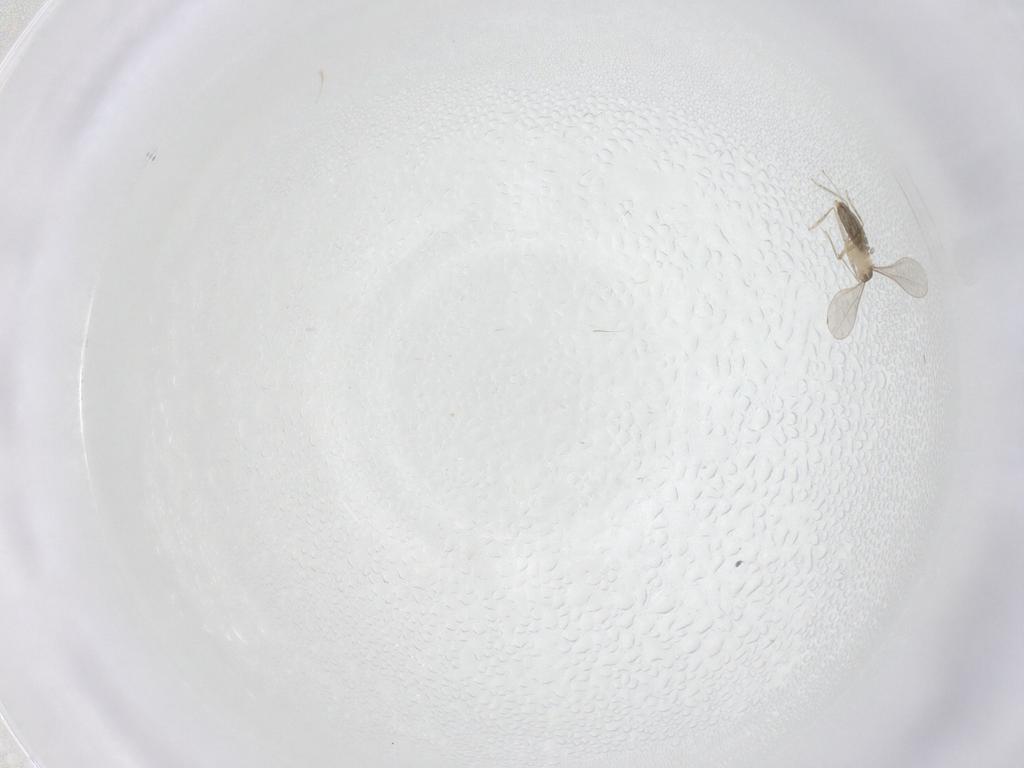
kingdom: Animalia
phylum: Arthropoda
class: Insecta
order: Diptera
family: Cecidomyiidae
